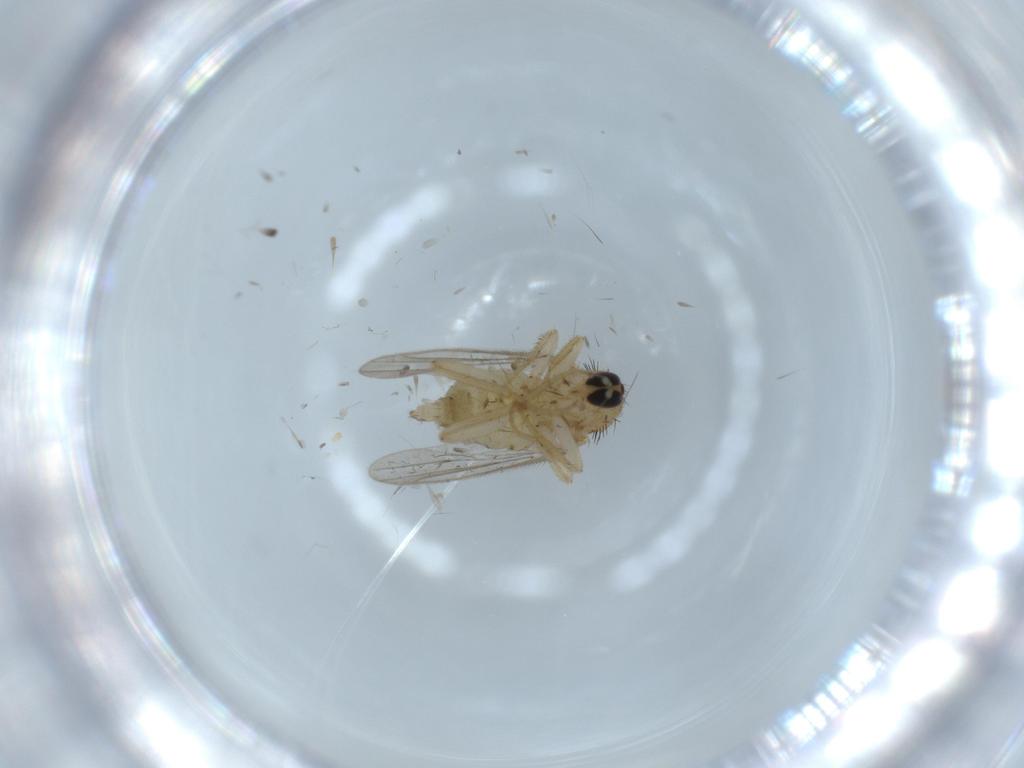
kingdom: Animalia
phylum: Arthropoda
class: Insecta
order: Diptera
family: Hybotidae
